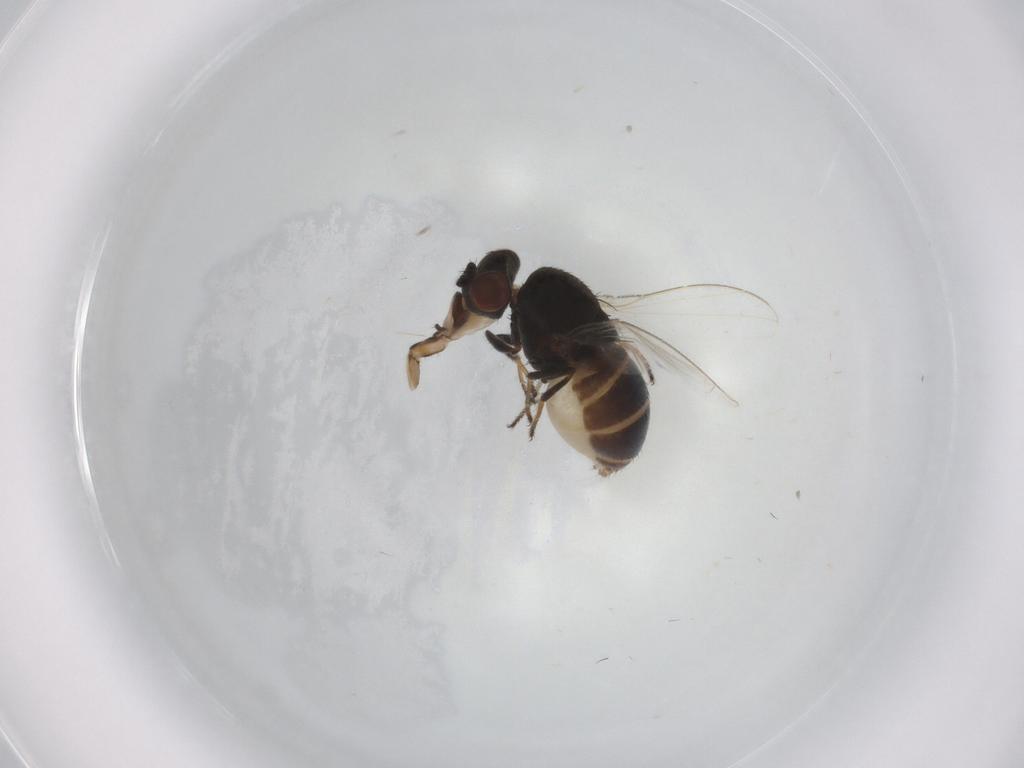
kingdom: Animalia
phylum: Arthropoda
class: Insecta
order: Diptera
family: Ephydridae
